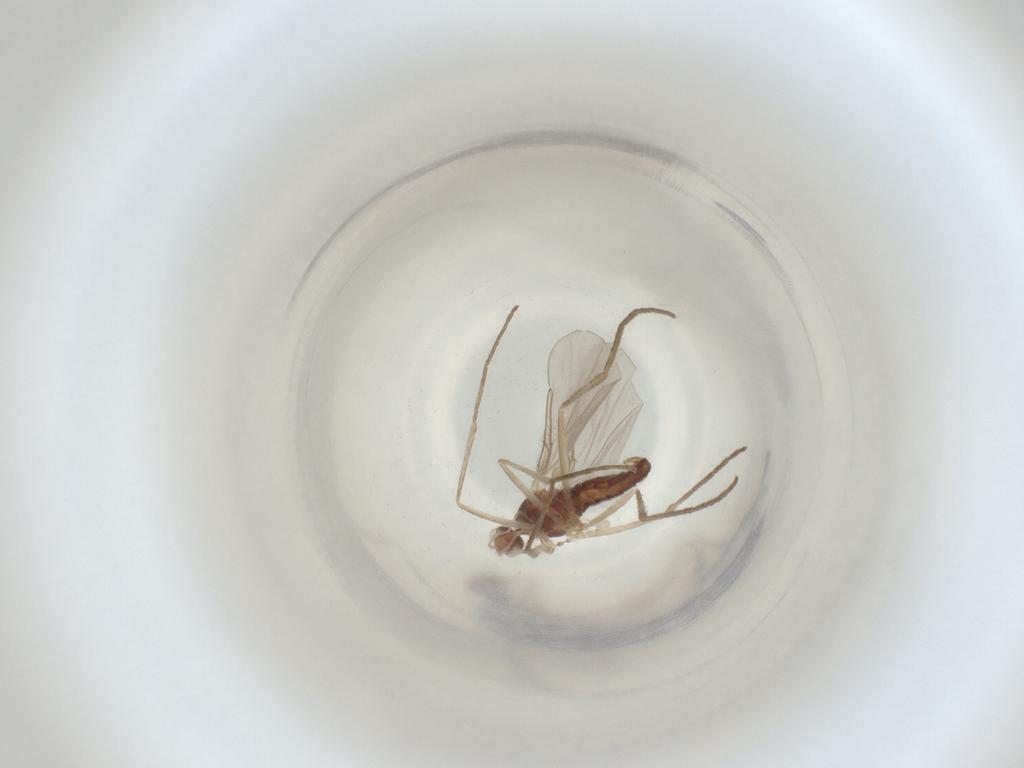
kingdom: Animalia
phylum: Arthropoda
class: Insecta
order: Diptera
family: Cecidomyiidae
